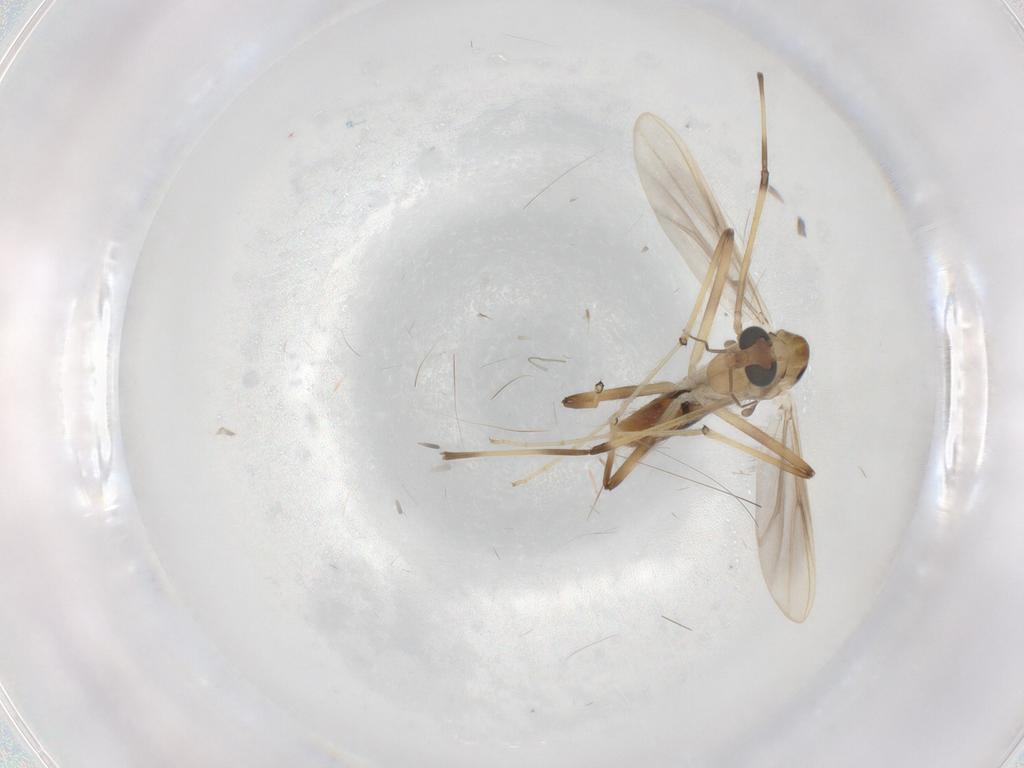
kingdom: Animalia
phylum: Arthropoda
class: Insecta
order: Diptera
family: Chironomidae
